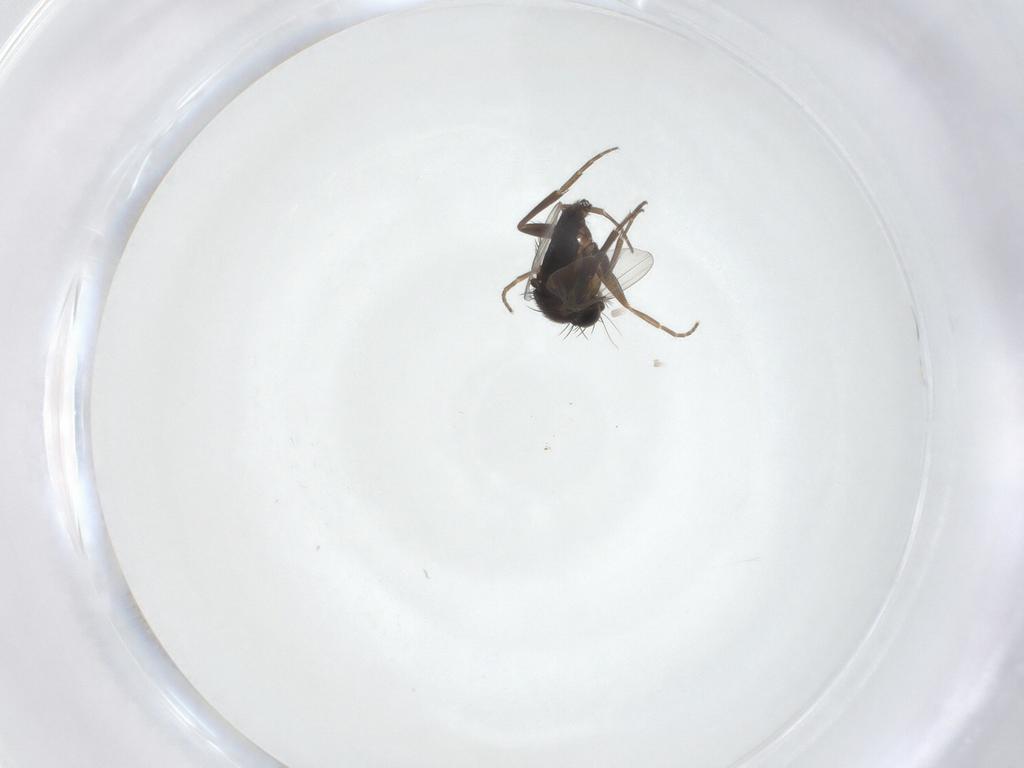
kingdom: Animalia
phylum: Arthropoda
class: Insecta
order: Diptera
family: Phoridae
